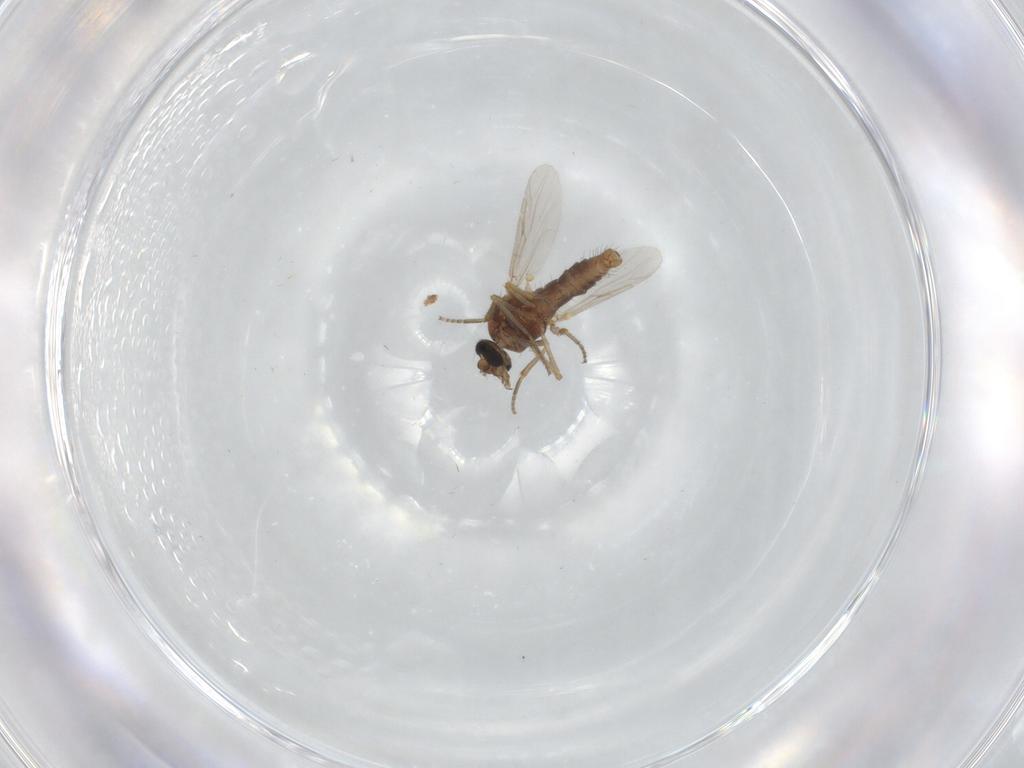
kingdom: Animalia
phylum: Arthropoda
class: Insecta
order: Diptera
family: Ceratopogonidae
